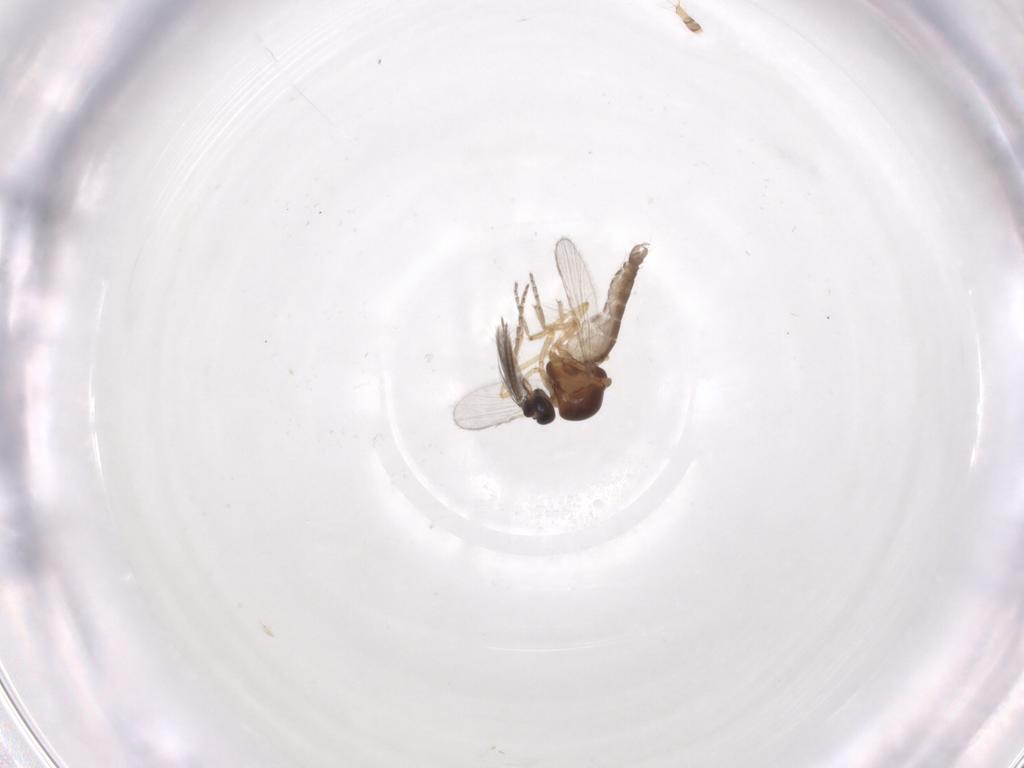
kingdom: Animalia
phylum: Arthropoda
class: Insecta
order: Diptera
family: Ceratopogonidae
